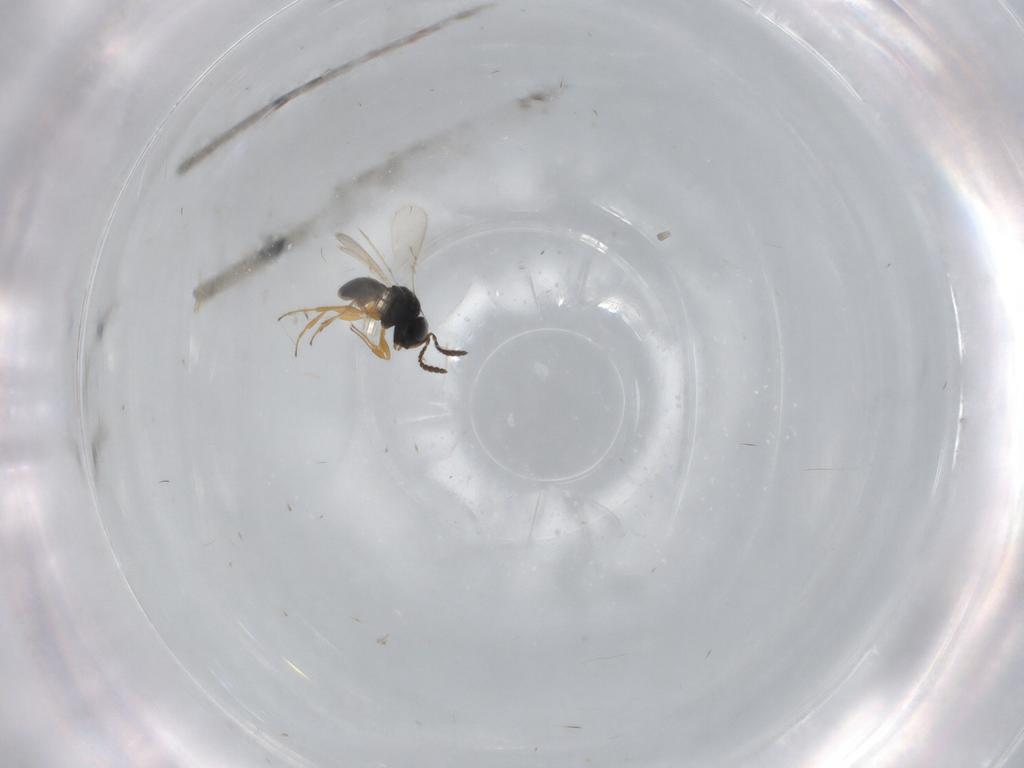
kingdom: Animalia
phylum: Arthropoda
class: Insecta
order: Hymenoptera
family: Scelionidae
